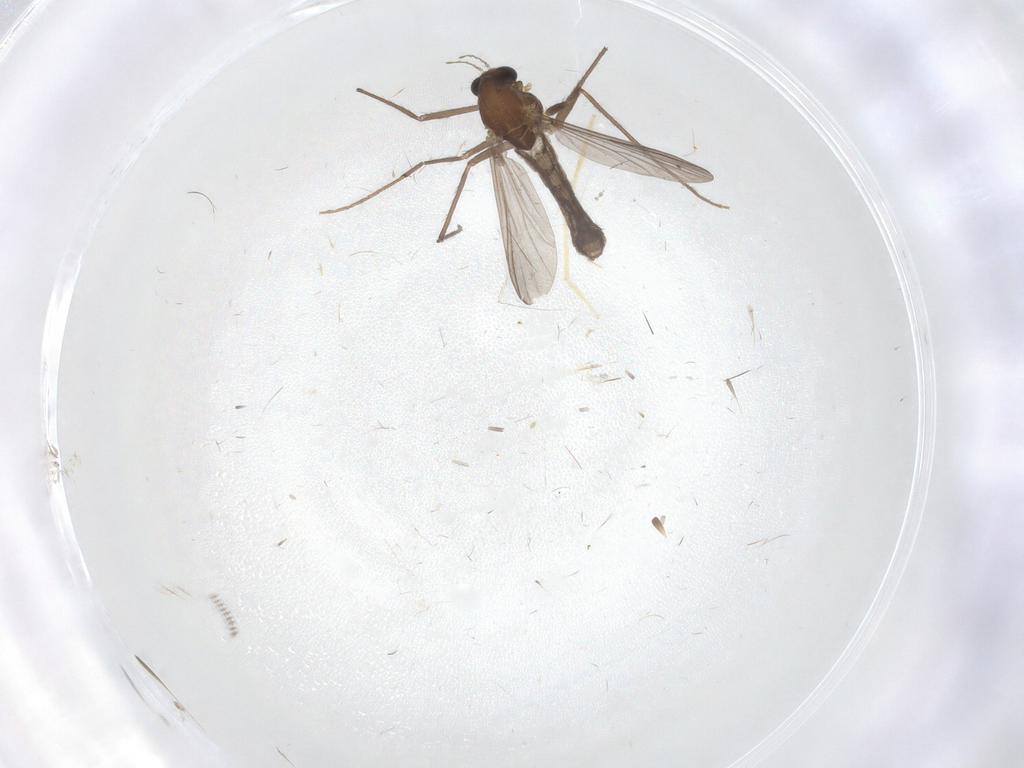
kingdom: Animalia
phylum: Arthropoda
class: Insecta
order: Diptera
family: Chironomidae
